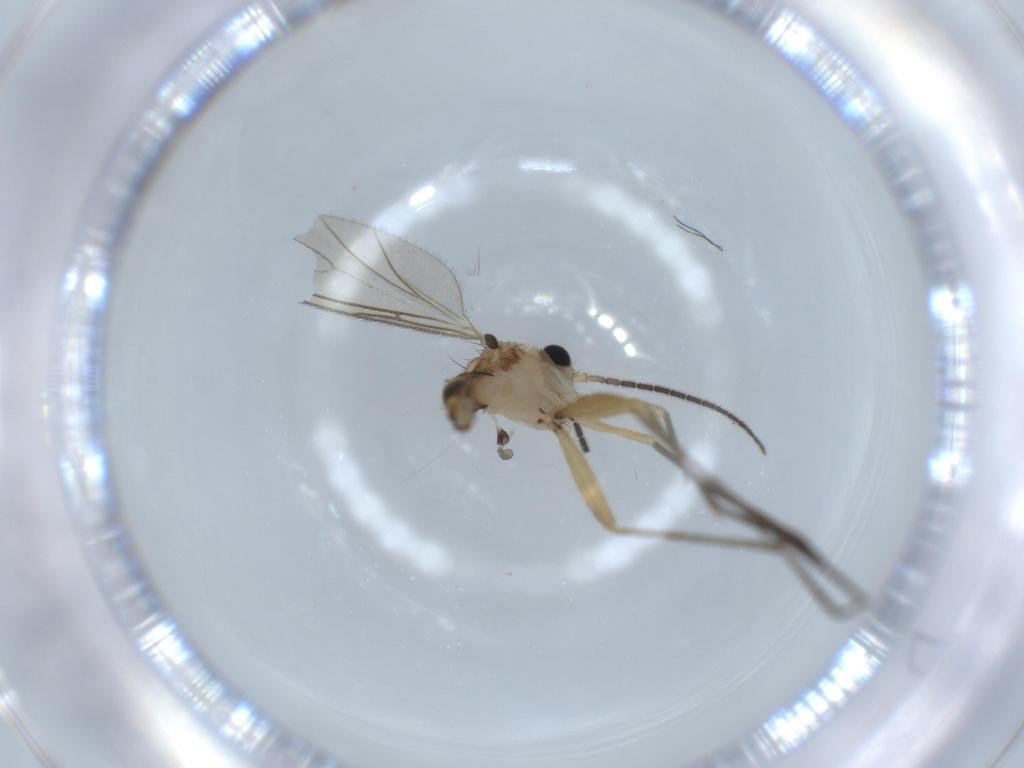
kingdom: Animalia
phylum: Arthropoda
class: Insecta
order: Diptera
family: Sciaridae
